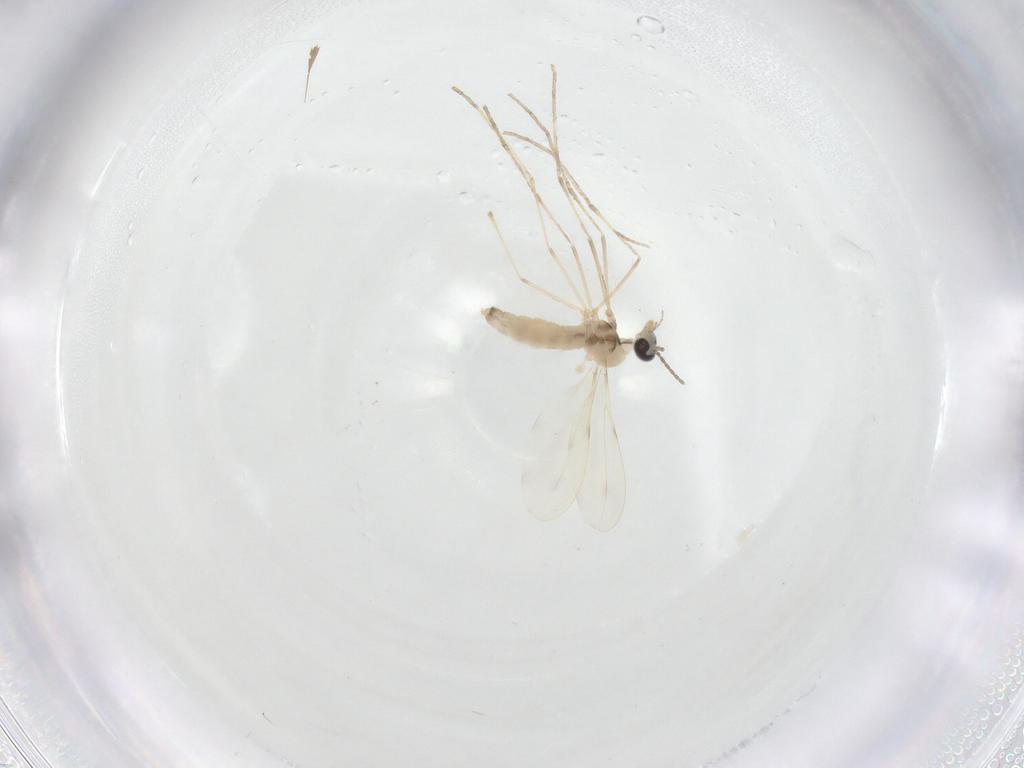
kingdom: Animalia
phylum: Arthropoda
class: Insecta
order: Diptera
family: Cecidomyiidae
